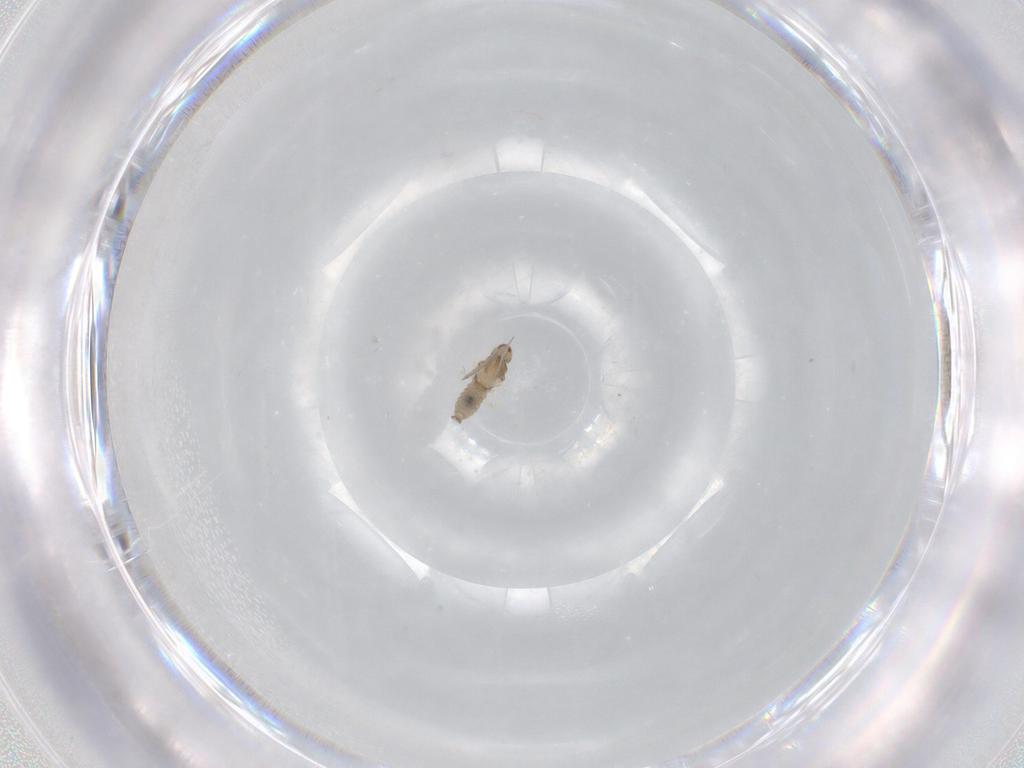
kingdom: Animalia
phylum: Arthropoda
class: Insecta
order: Diptera
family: Cecidomyiidae
